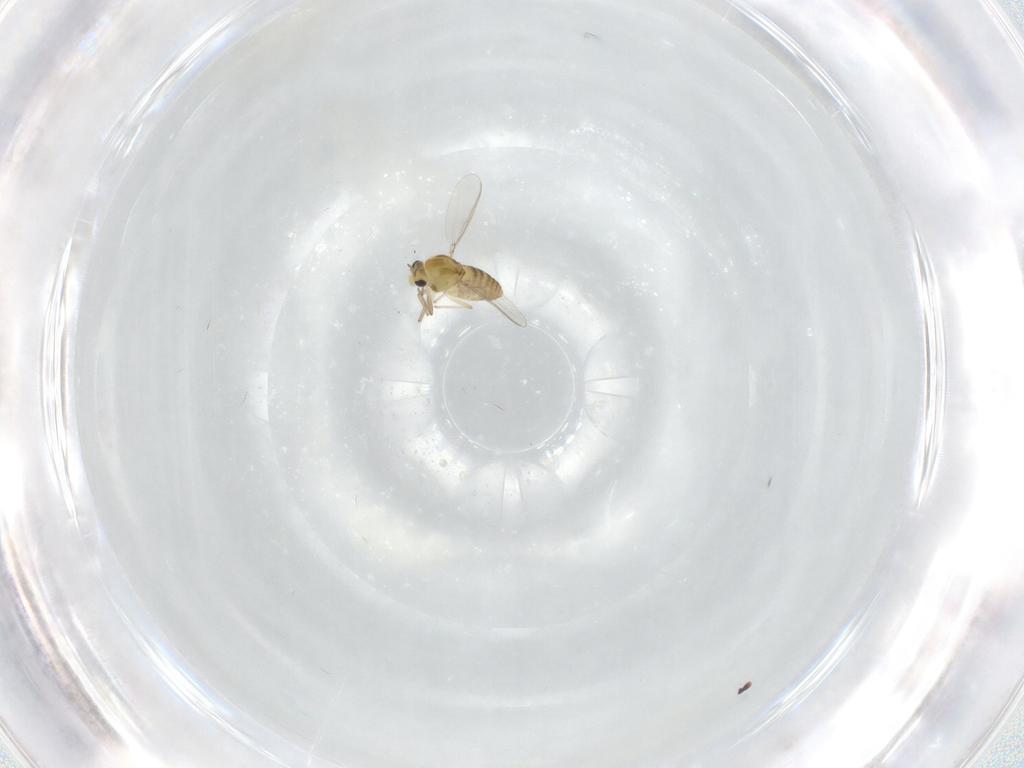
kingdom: Animalia
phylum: Arthropoda
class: Insecta
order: Diptera
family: Chironomidae
